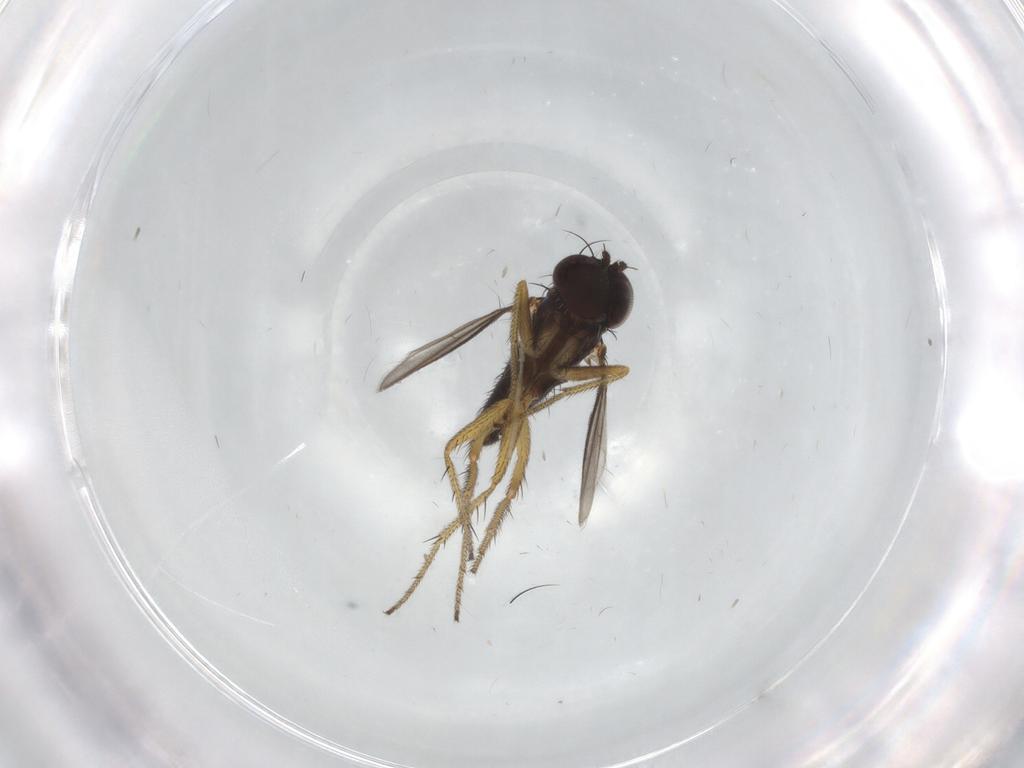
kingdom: Animalia
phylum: Arthropoda
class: Insecta
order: Diptera
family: Chironomidae
